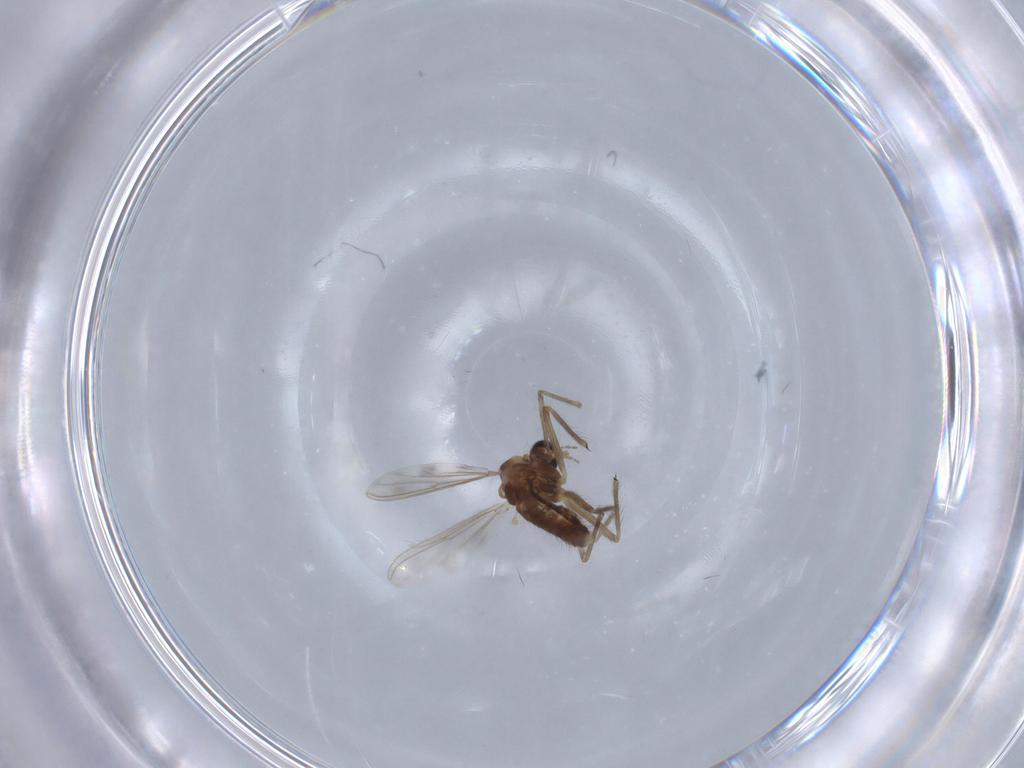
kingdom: Animalia
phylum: Arthropoda
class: Insecta
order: Diptera
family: Chironomidae
